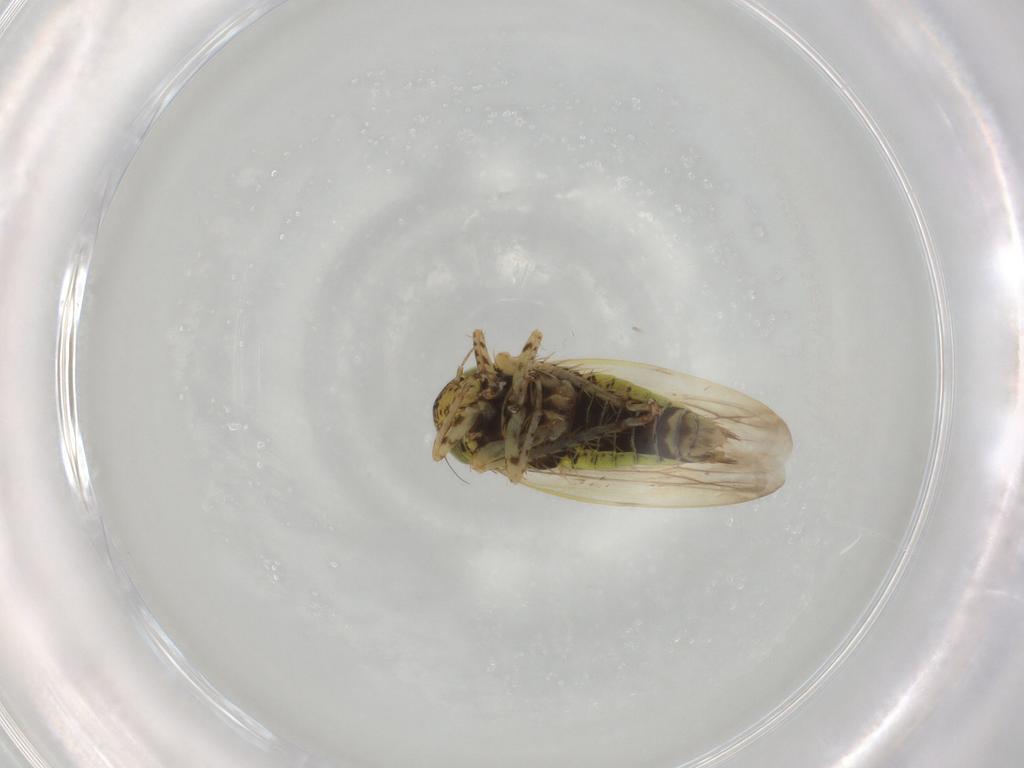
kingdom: Animalia
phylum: Arthropoda
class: Insecta
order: Hemiptera
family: Cicadellidae
